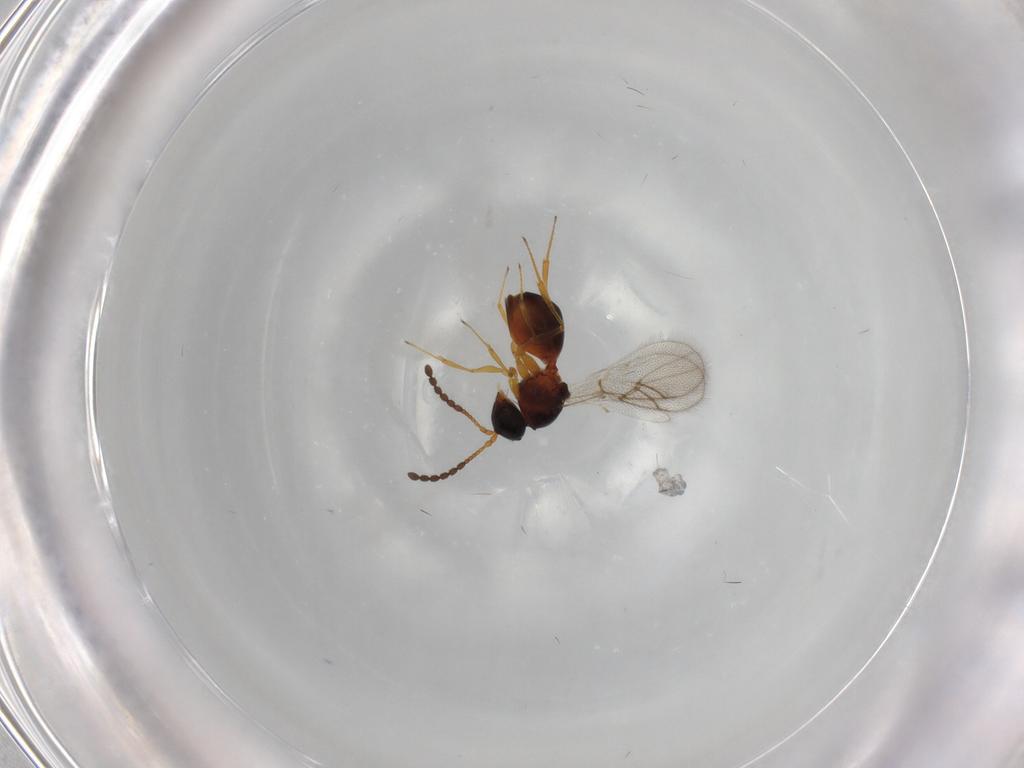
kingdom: Animalia
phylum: Arthropoda
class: Insecta
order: Hymenoptera
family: Figitidae
